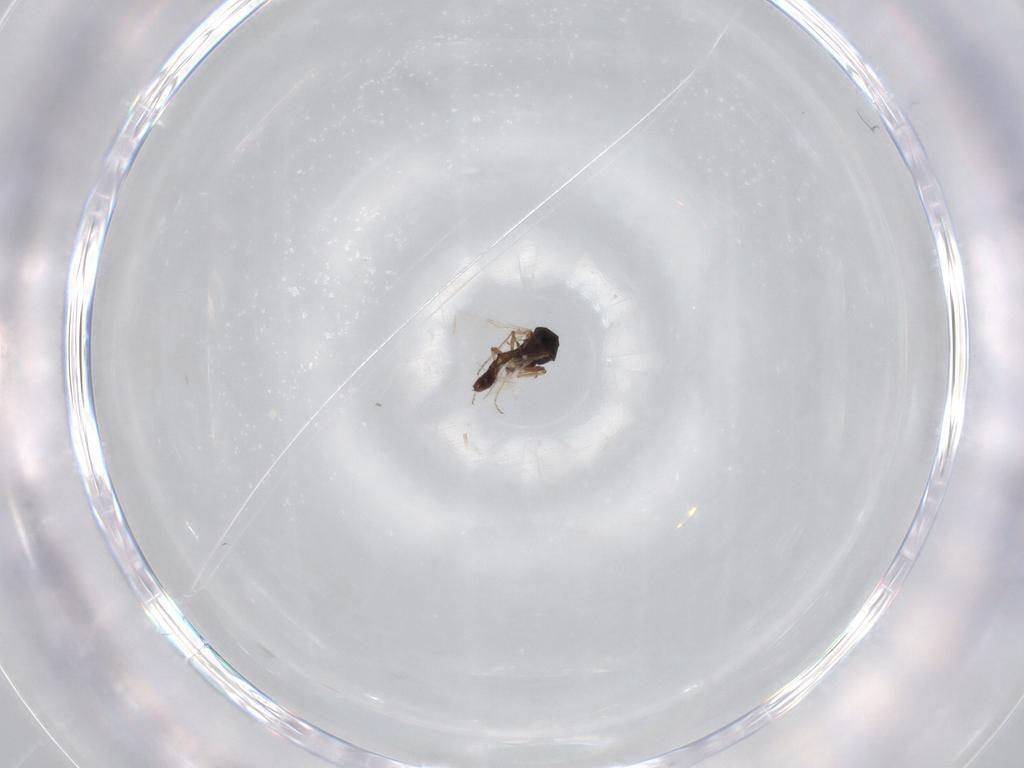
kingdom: Animalia
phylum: Arthropoda
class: Insecta
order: Diptera
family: Ceratopogonidae
